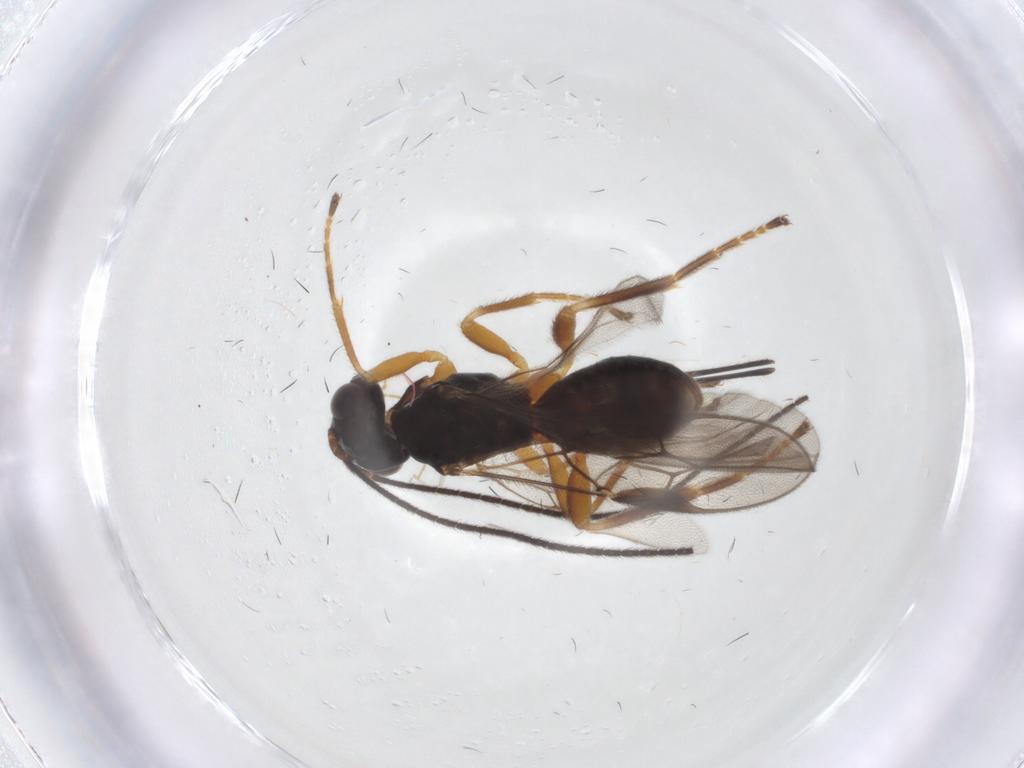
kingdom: Animalia
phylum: Arthropoda
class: Insecta
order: Hymenoptera
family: Braconidae
